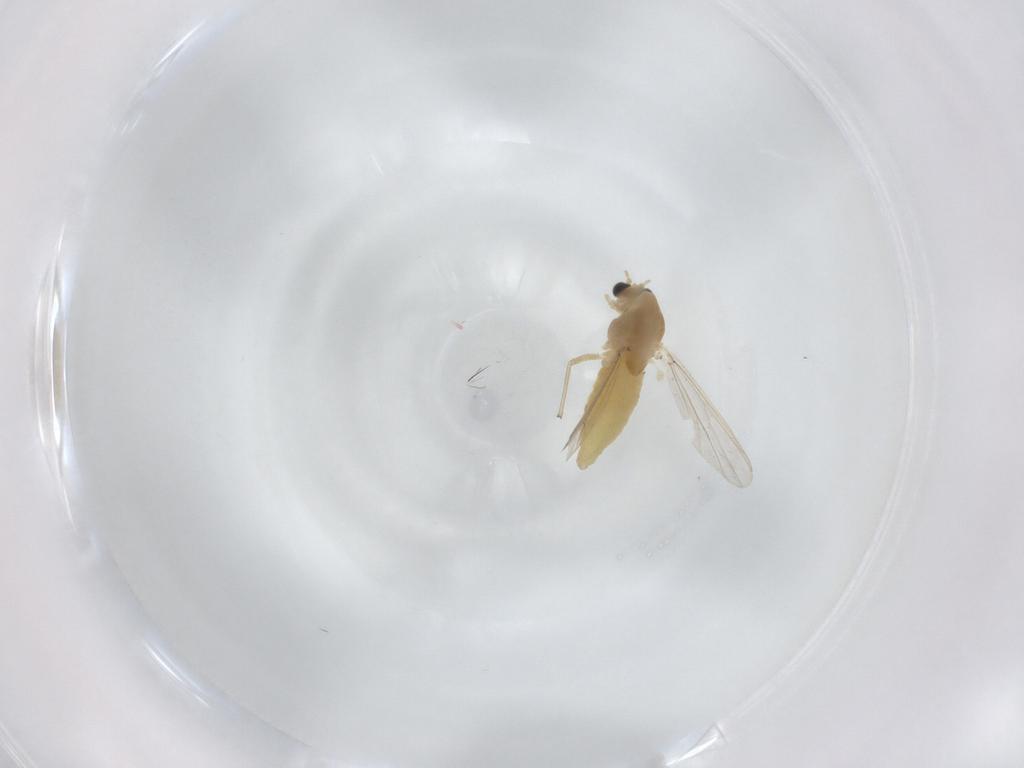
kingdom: Animalia
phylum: Arthropoda
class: Insecta
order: Diptera
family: Chironomidae
